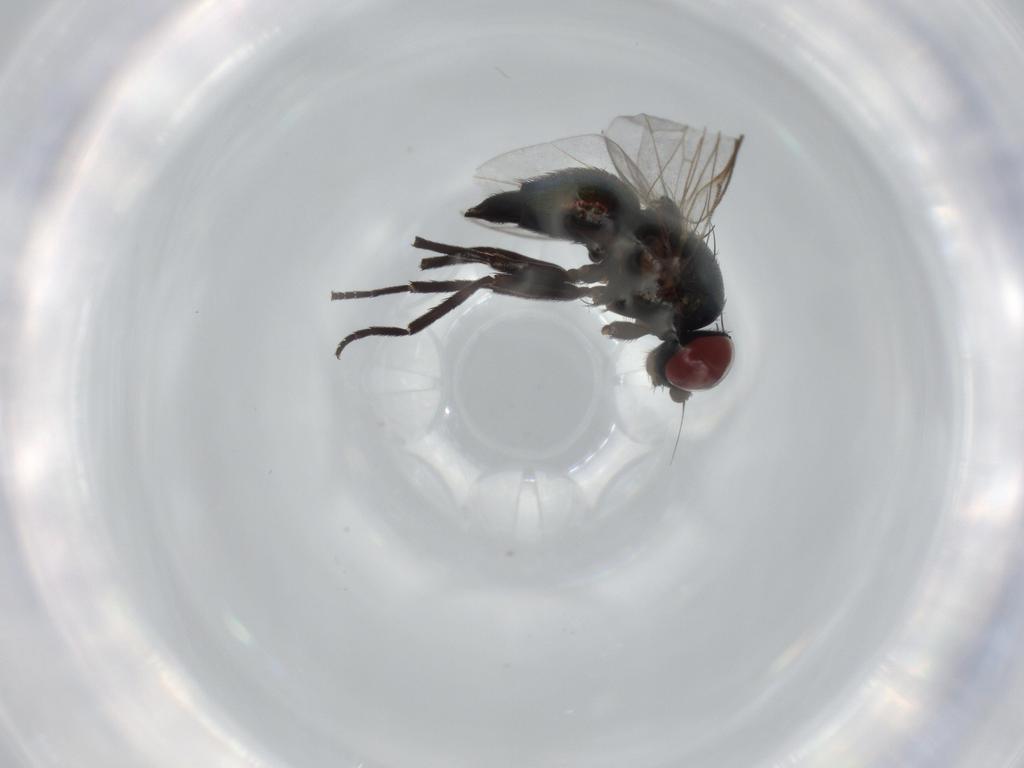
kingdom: Animalia
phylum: Arthropoda
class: Insecta
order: Diptera
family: Agromyzidae
